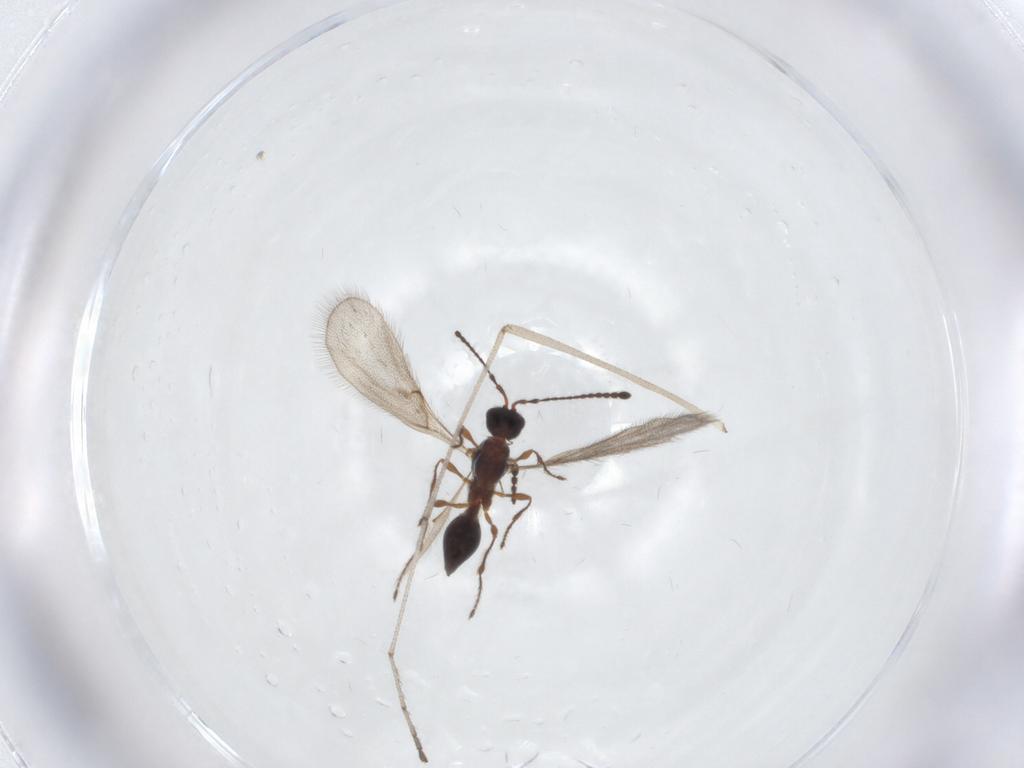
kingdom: Animalia
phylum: Arthropoda
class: Insecta
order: Hymenoptera
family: Diapriidae
